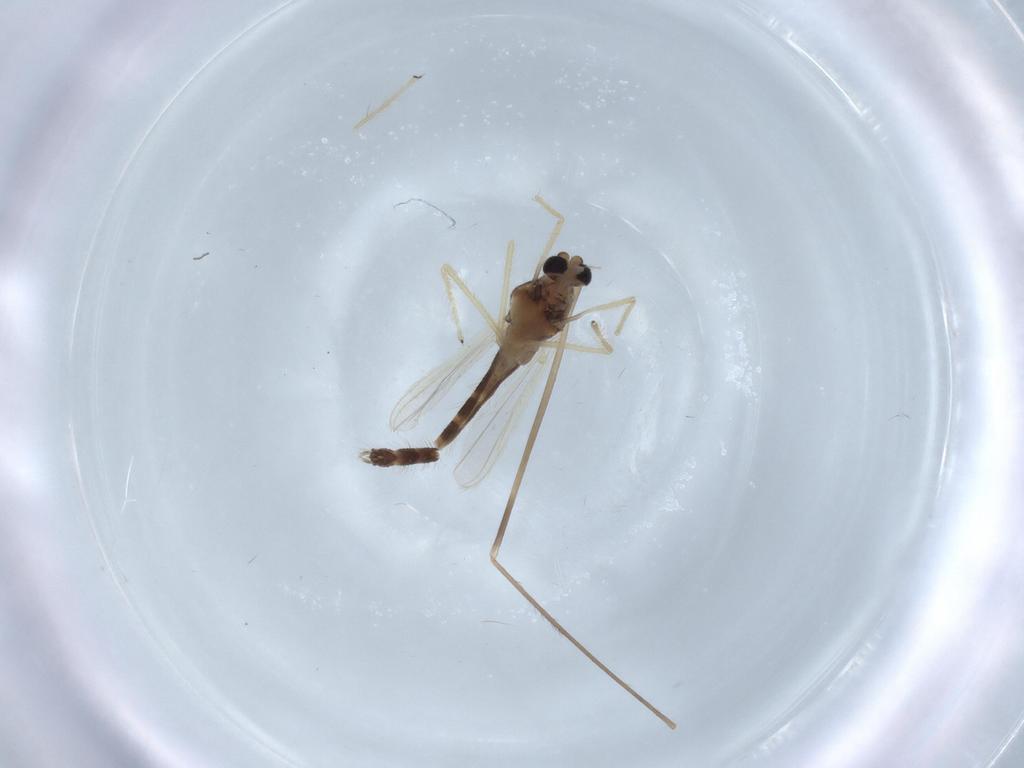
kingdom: Animalia
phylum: Arthropoda
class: Insecta
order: Diptera
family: Chironomidae
